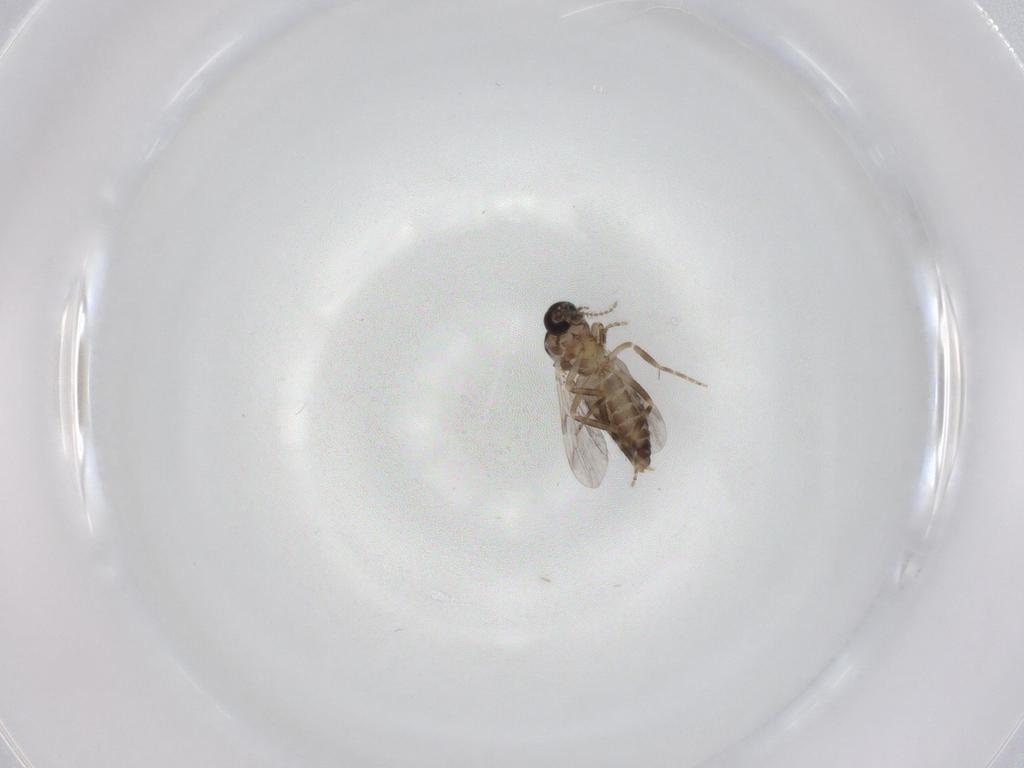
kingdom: Animalia
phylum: Arthropoda
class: Insecta
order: Diptera
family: Ceratopogonidae
